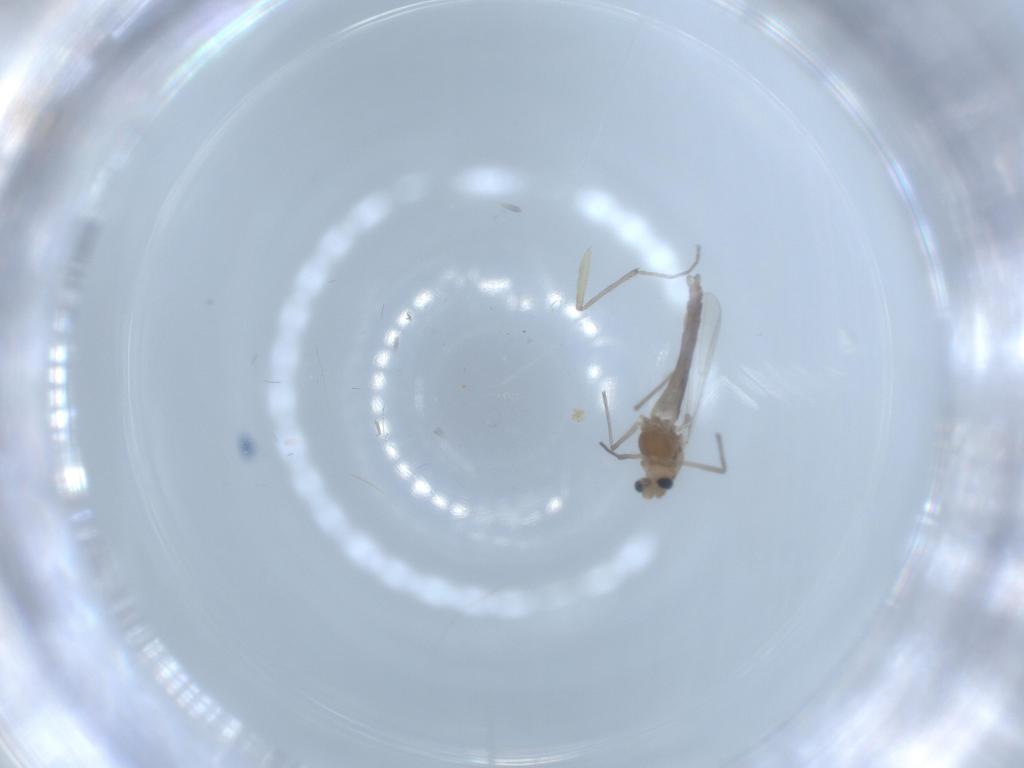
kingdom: Animalia
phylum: Arthropoda
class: Insecta
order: Diptera
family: Chironomidae
